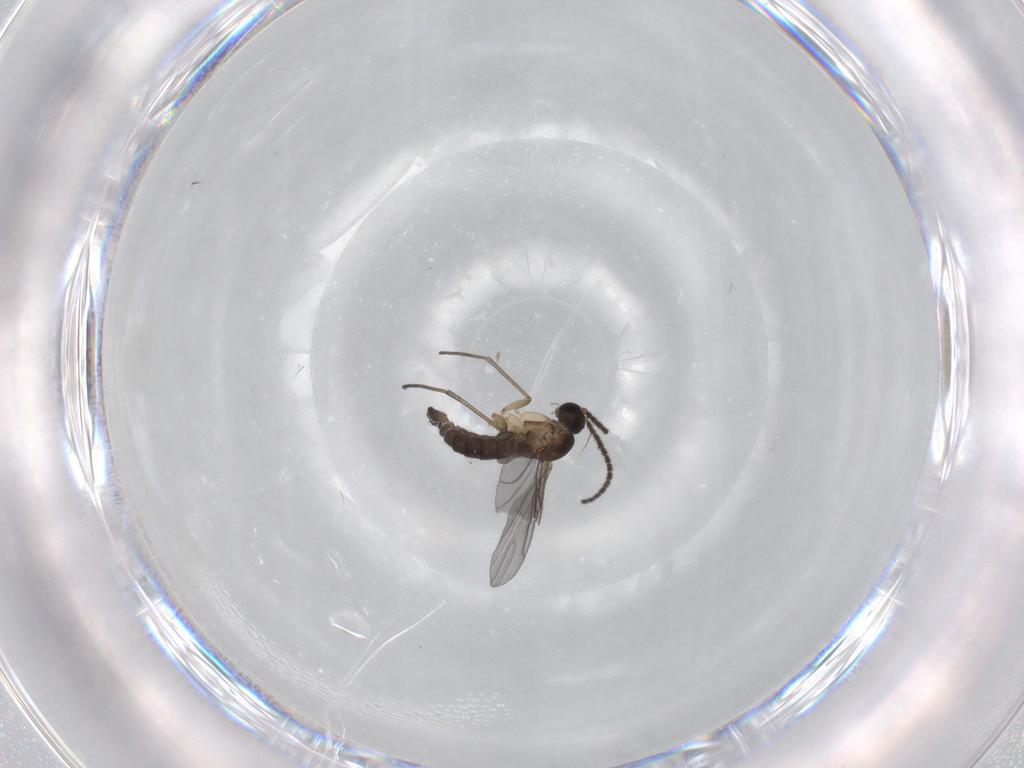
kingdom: Animalia
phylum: Arthropoda
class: Insecta
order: Diptera
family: Sciaridae
